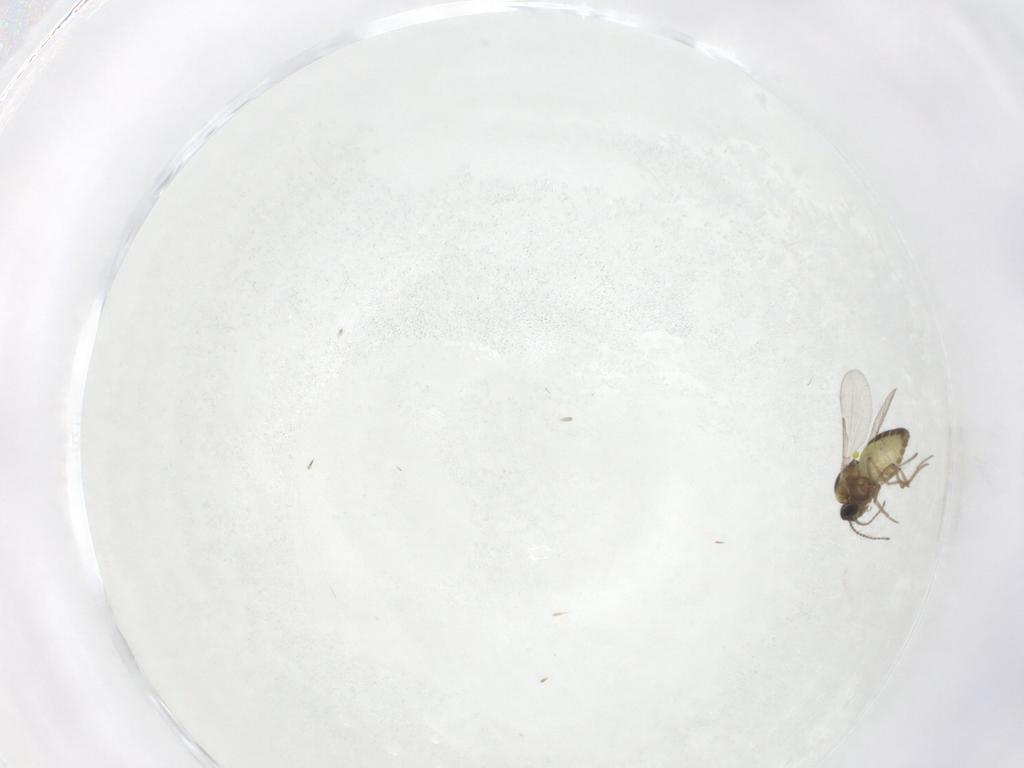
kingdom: Animalia
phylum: Arthropoda
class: Insecta
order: Diptera
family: Ceratopogonidae
